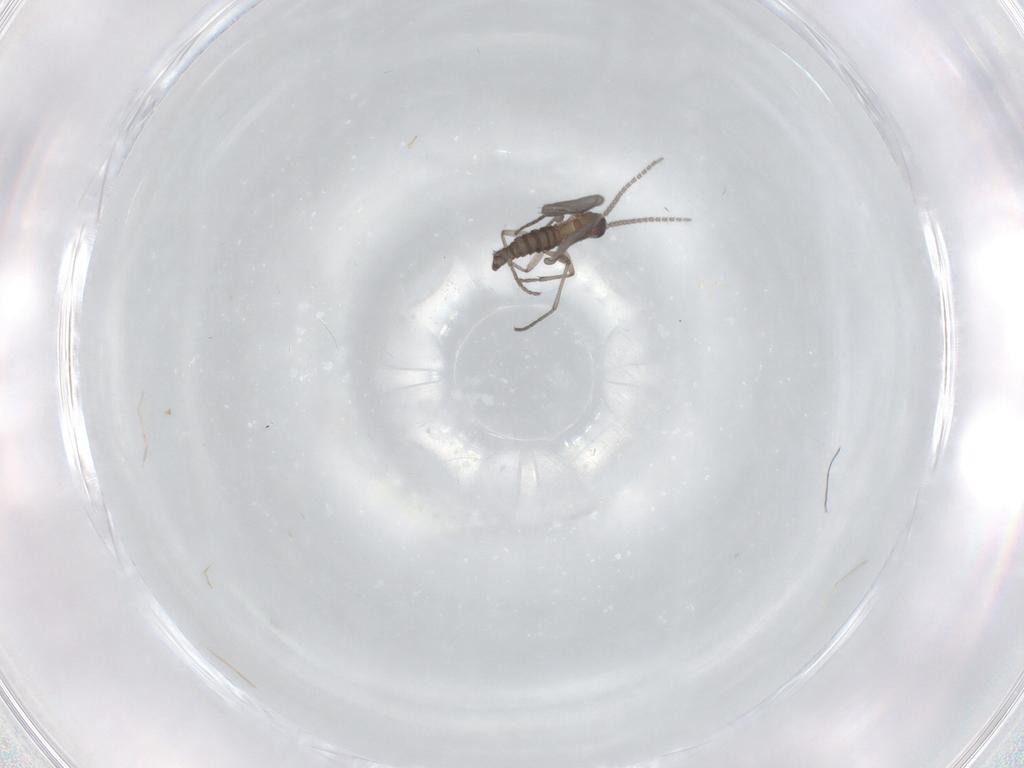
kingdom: Animalia
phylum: Arthropoda
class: Insecta
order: Diptera
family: Sciaridae
